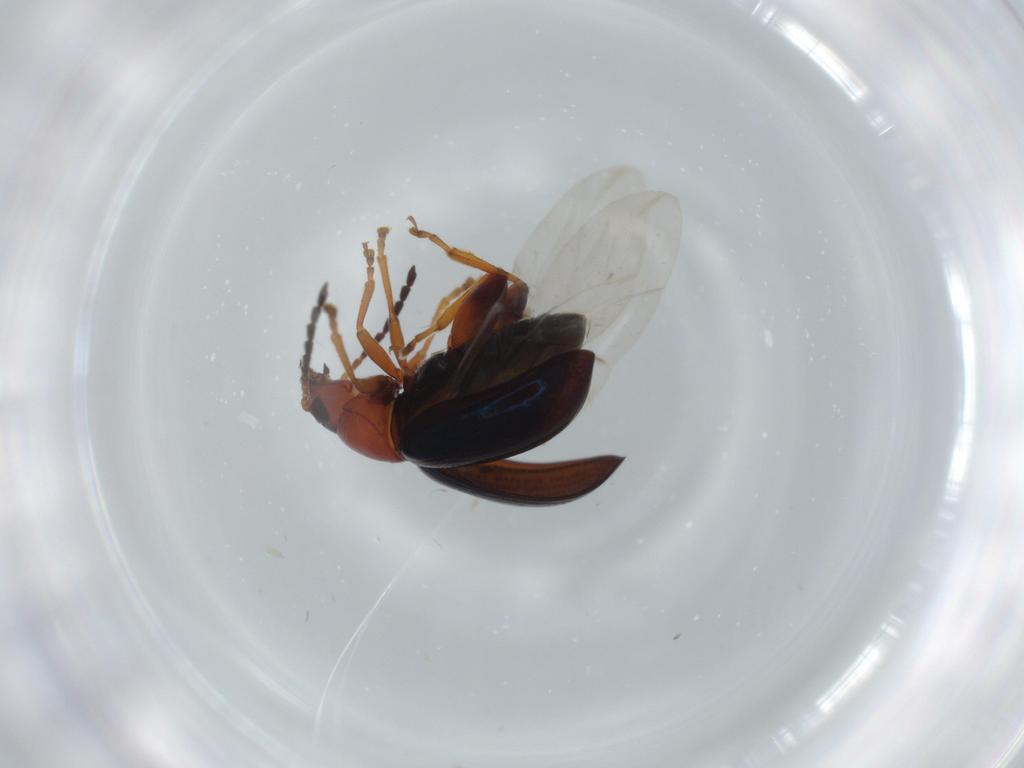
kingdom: Animalia
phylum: Arthropoda
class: Insecta
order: Coleoptera
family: Chrysomelidae
